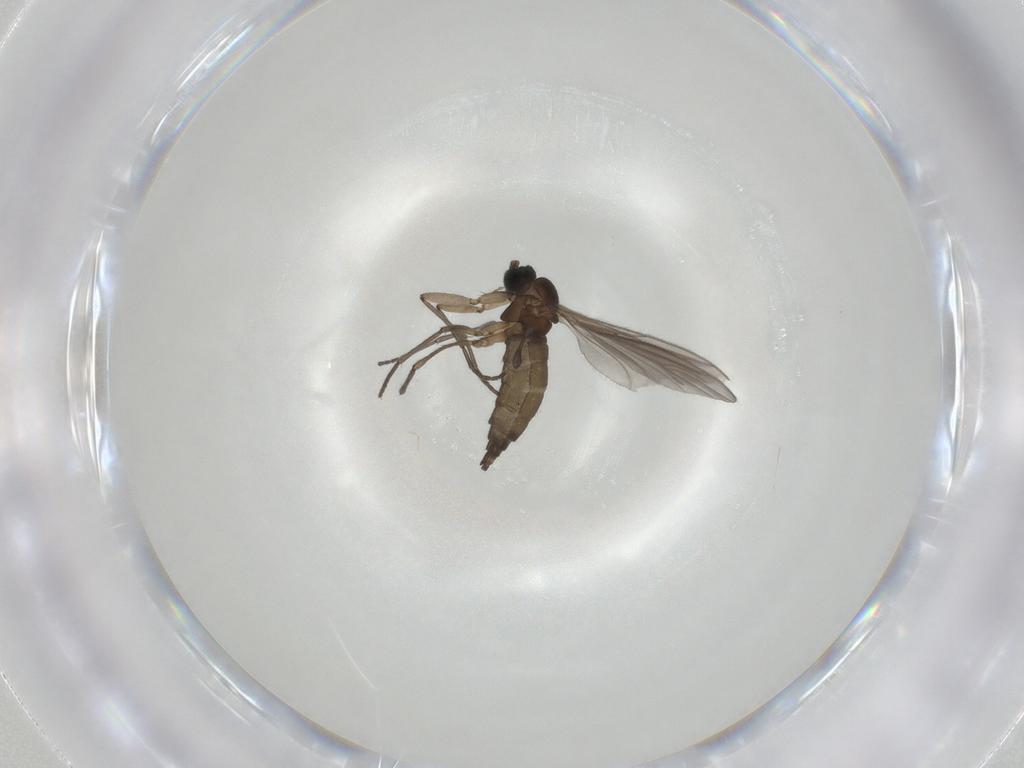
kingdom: Animalia
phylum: Arthropoda
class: Insecta
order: Diptera
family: Sciaridae
